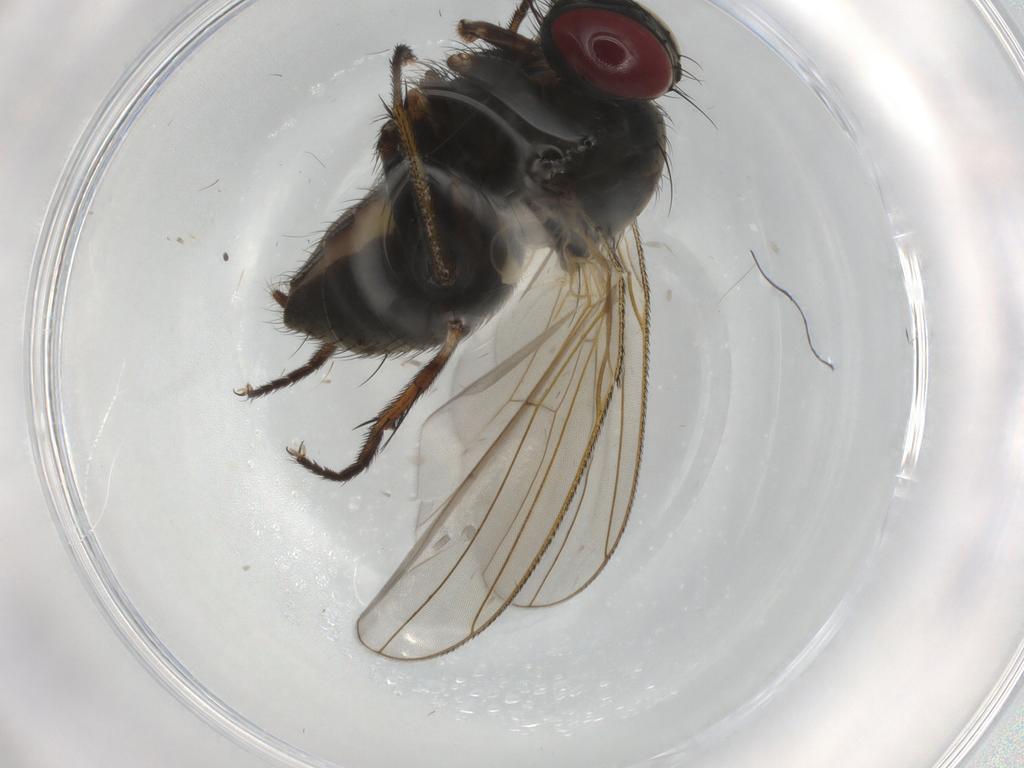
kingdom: Animalia
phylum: Arthropoda
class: Insecta
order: Diptera
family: Muscidae
